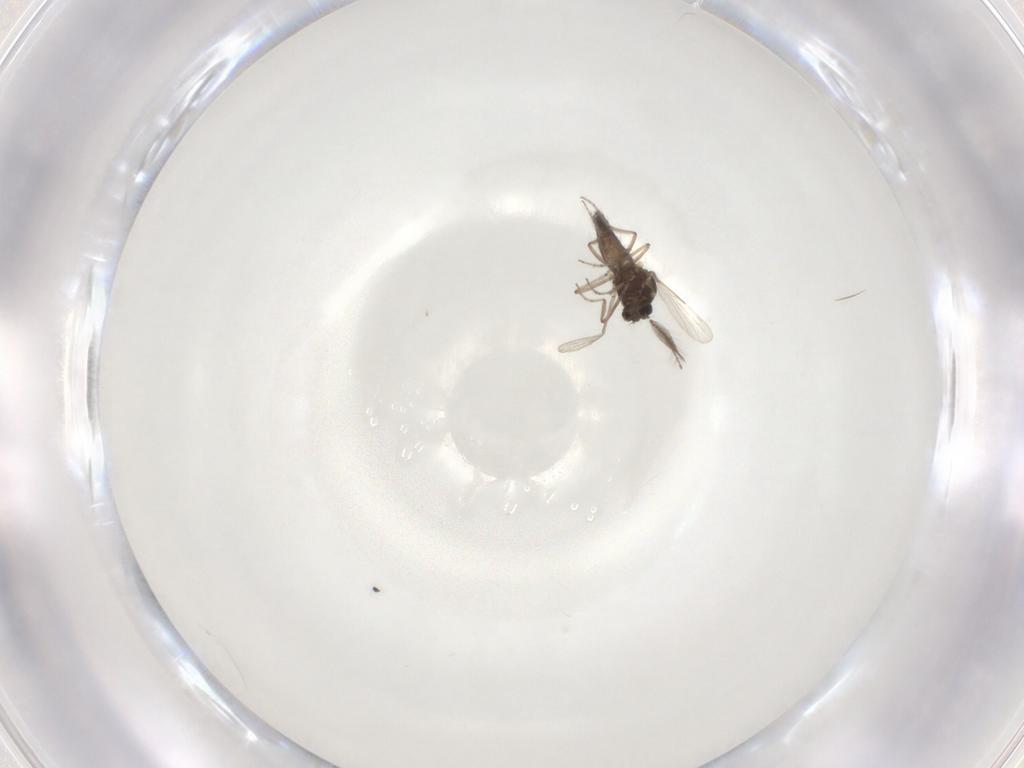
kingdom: Animalia
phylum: Arthropoda
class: Insecta
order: Diptera
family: Ceratopogonidae
